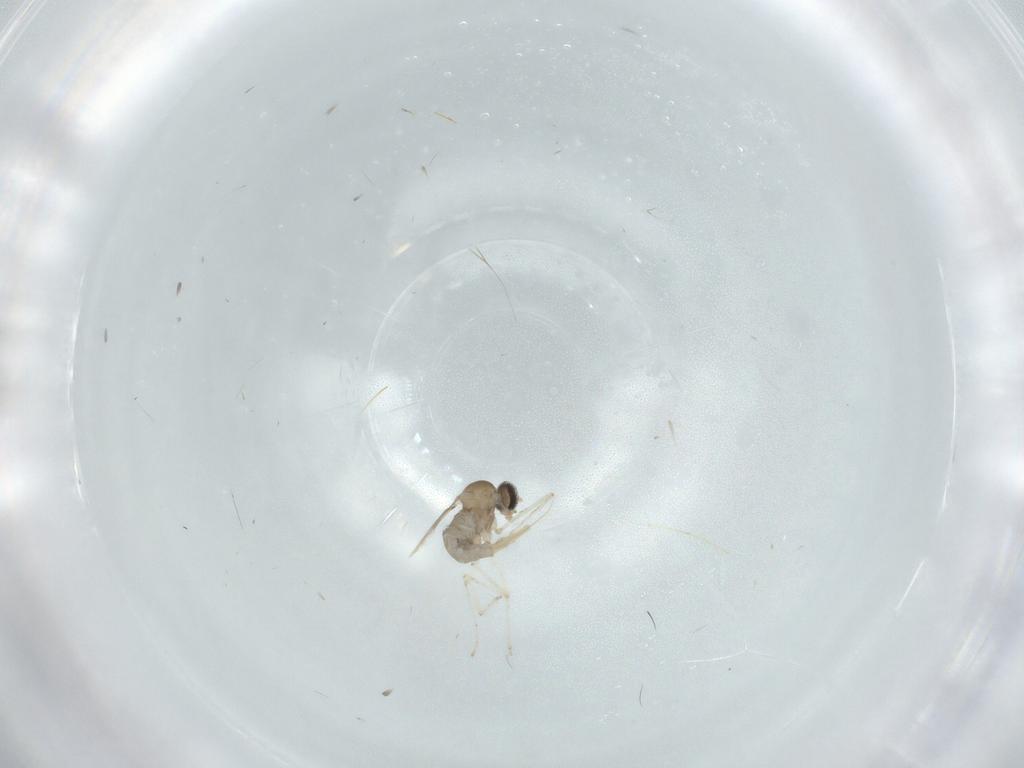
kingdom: Animalia
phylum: Arthropoda
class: Insecta
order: Diptera
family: Cecidomyiidae
